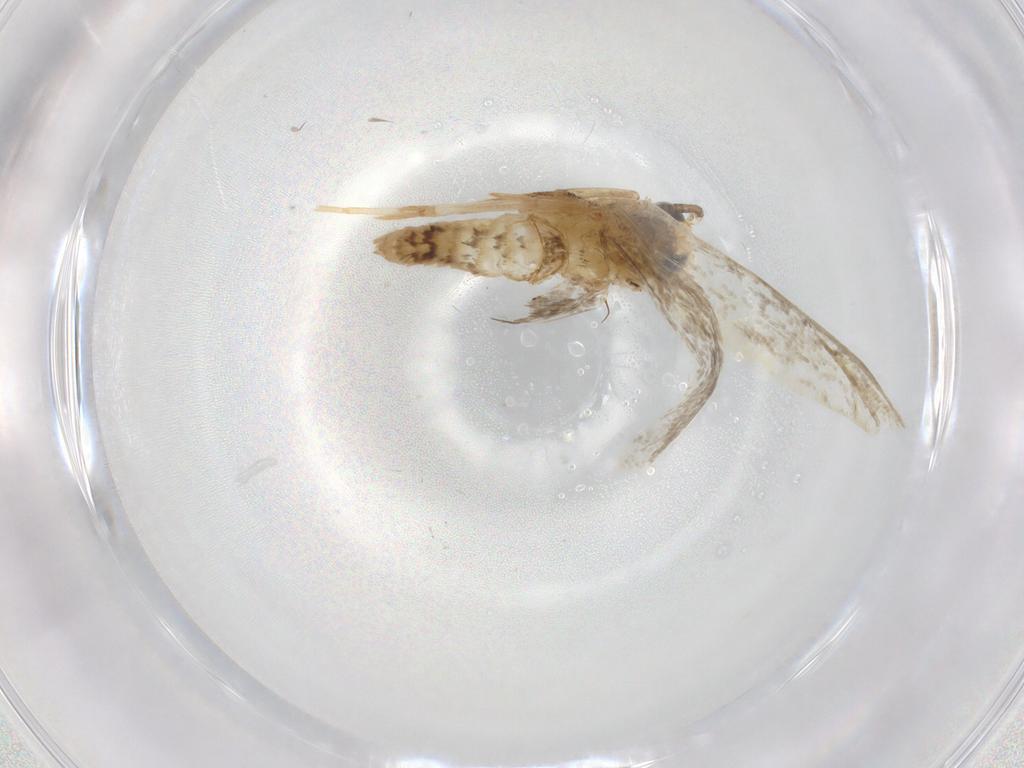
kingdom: Animalia
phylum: Arthropoda
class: Insecta
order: Lepidoptera
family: Tineidae
